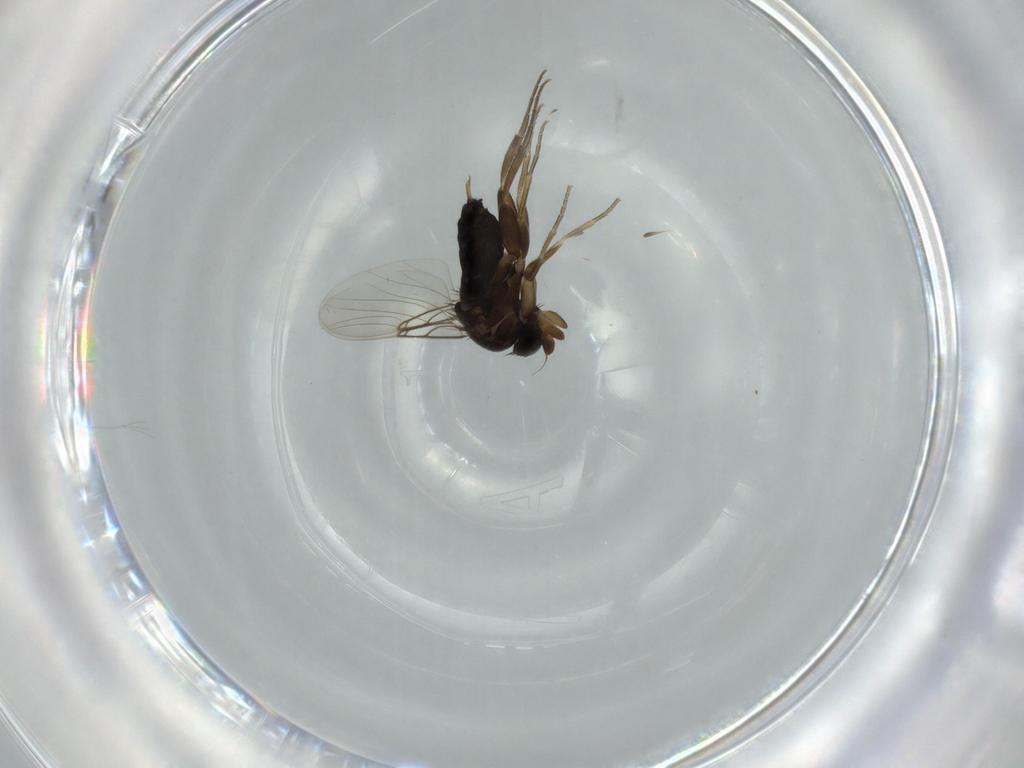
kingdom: Animalia
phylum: Arthropoda
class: Insecta
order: Diptera
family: Phoridae
